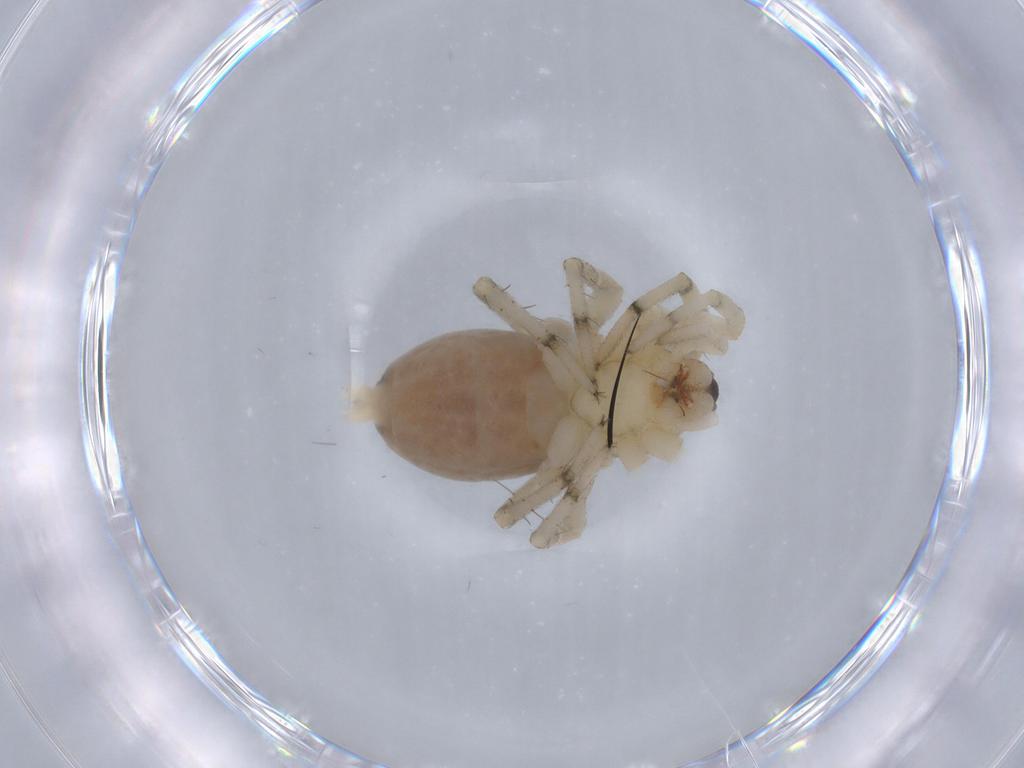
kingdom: Animalia
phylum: Arthropoda
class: Arachnida
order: Araneae
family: Gnaphosidae
